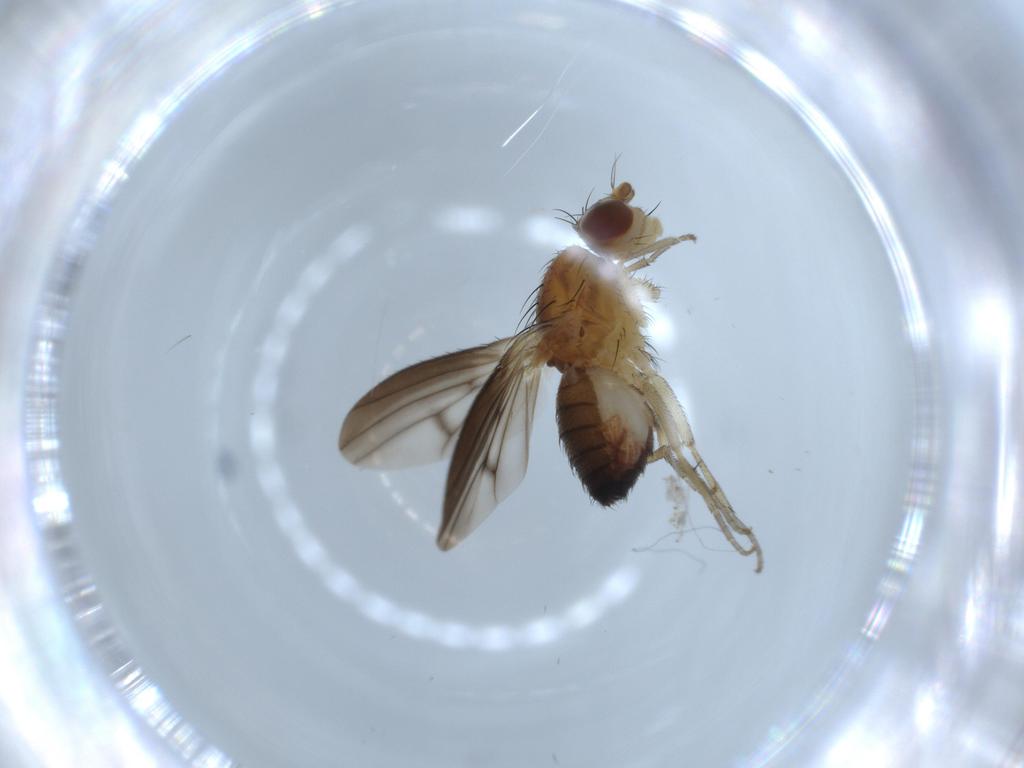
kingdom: Animalia
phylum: Arthropoda
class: Insecta
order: Diptera
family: Heleomyzidae
